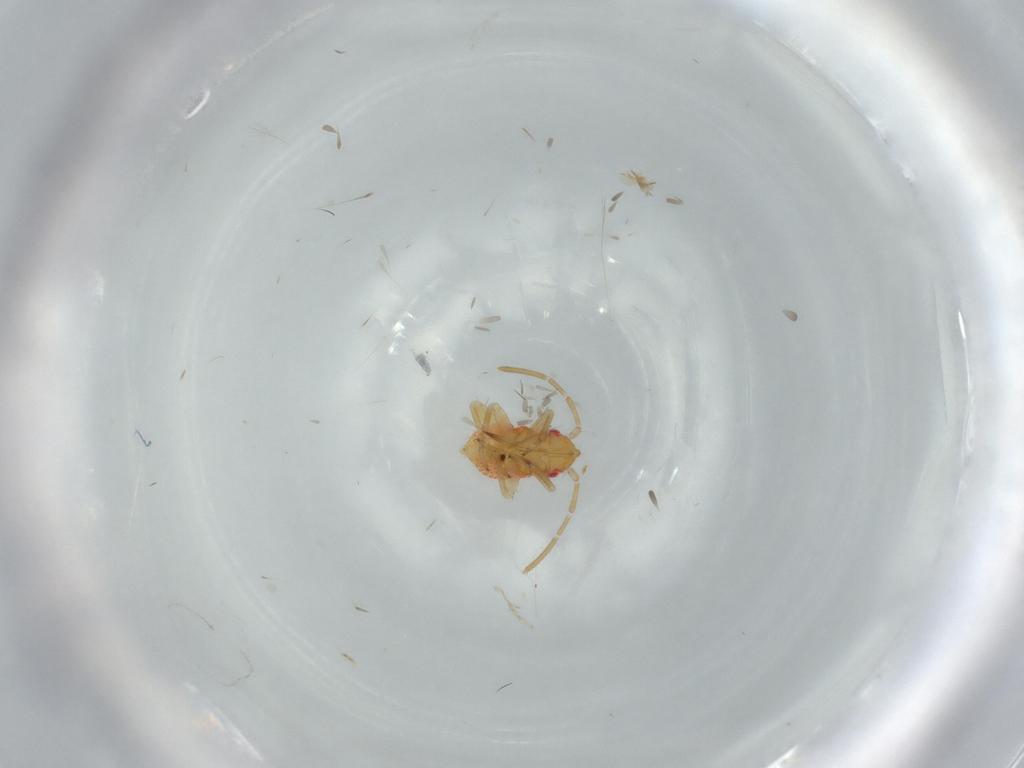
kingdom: Animalia
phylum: Arthropoda
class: Insecta
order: Hemiptera
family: Miridae
